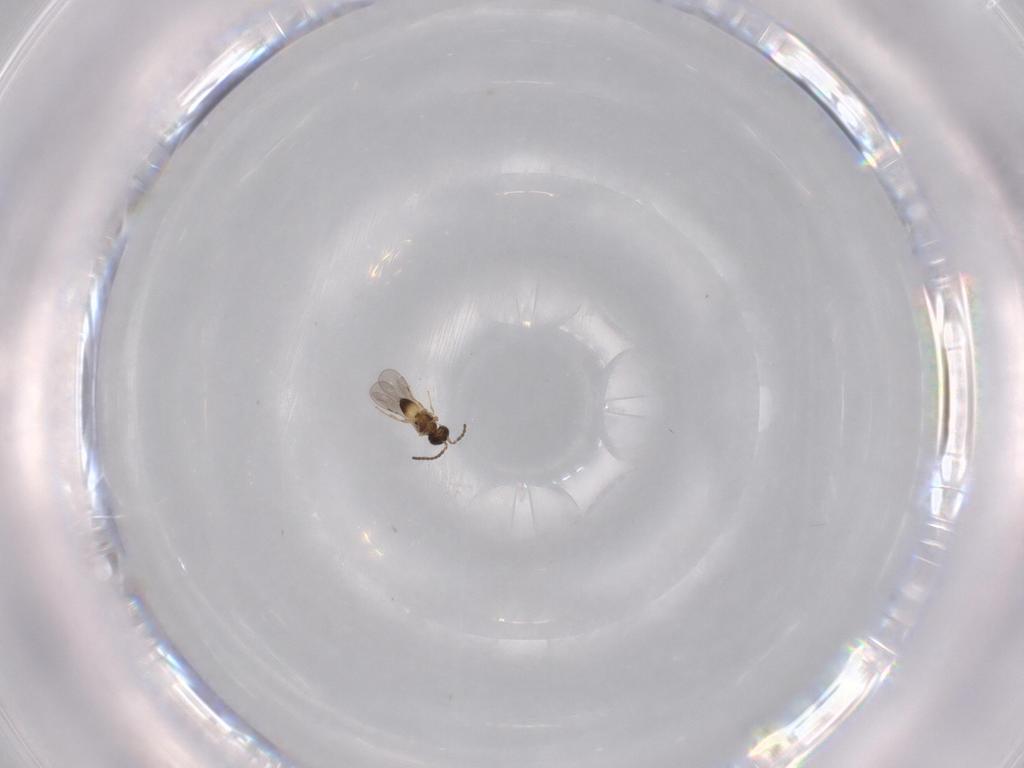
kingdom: Animalia
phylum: Arthropoda
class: Insecta
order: Hymenoptera
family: Ceraphronidae
